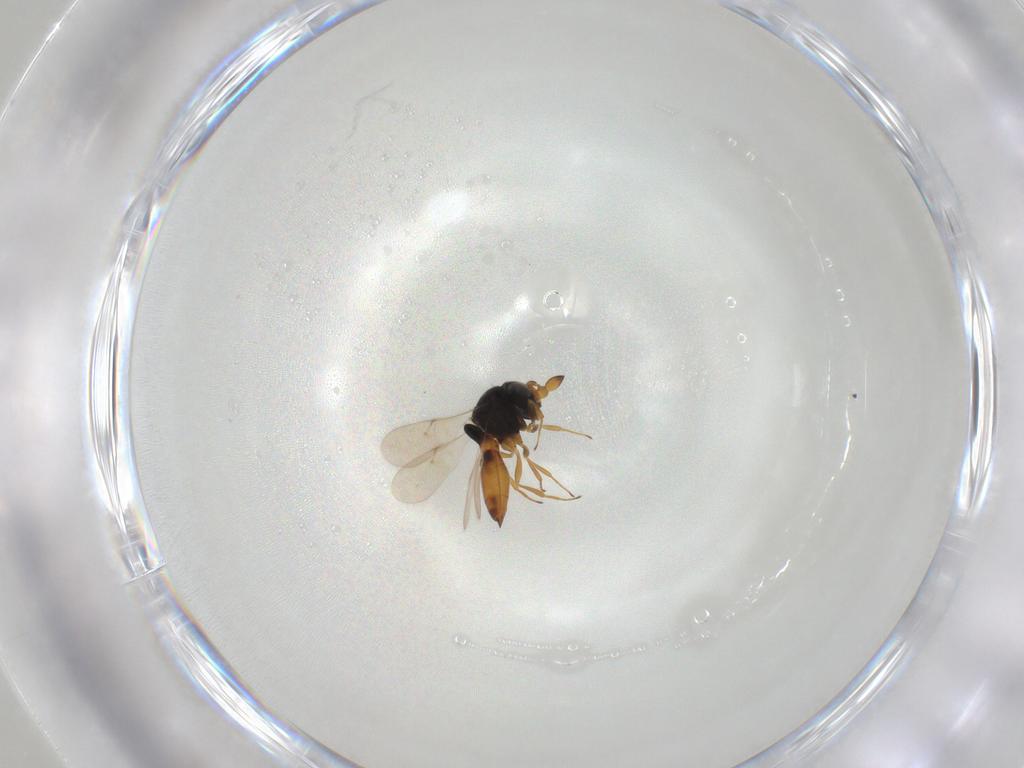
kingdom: Animalia
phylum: Arthropoda
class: Insecta
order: Hymenoptera
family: Scelionidae
